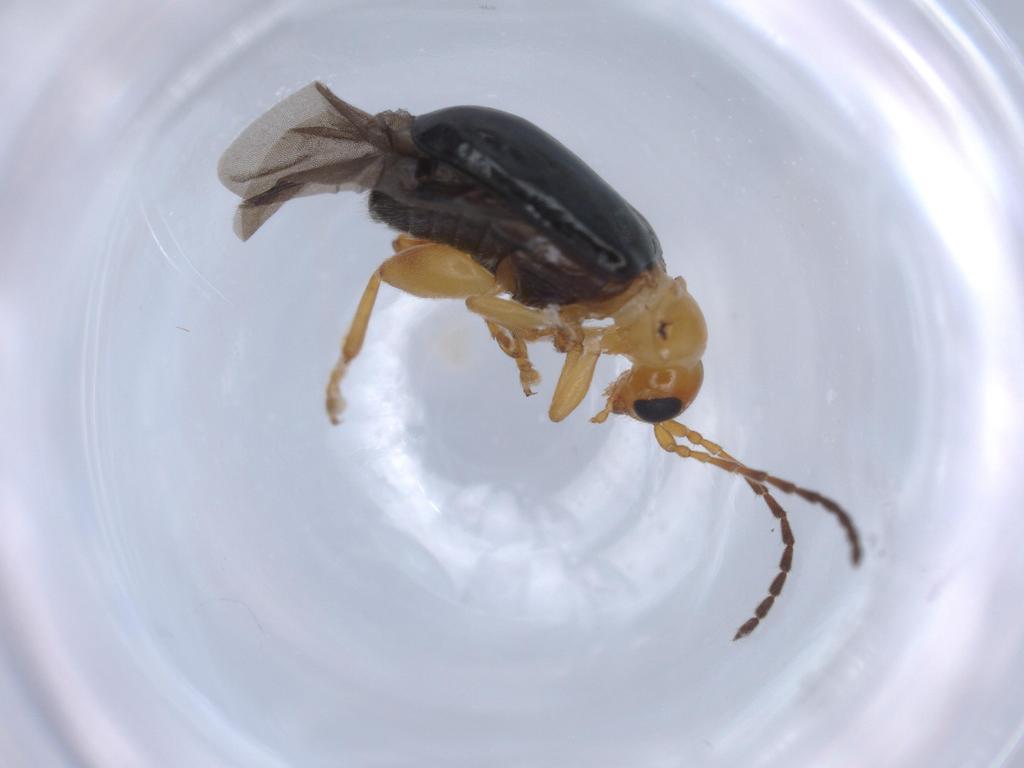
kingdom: Animalia
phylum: Arthropoda
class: Insecta
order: Coleoptera
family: Chrysomelidae
